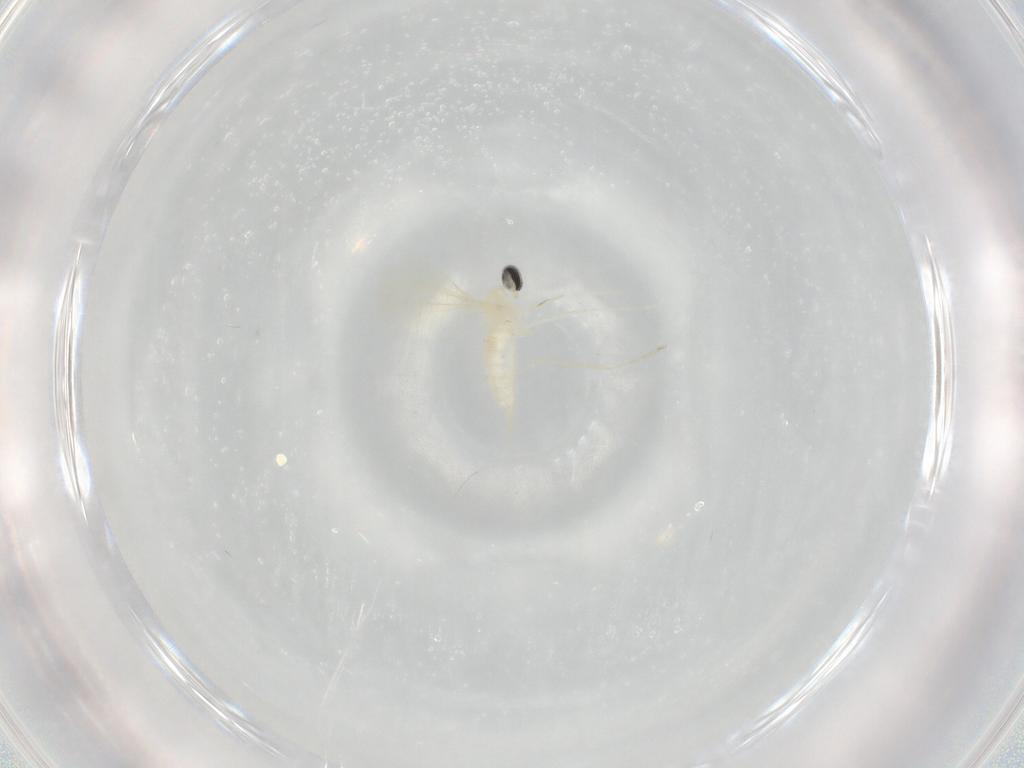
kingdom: Animalia
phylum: Arthropoda
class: Insecta
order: Diptera
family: Cecidomyiidae
